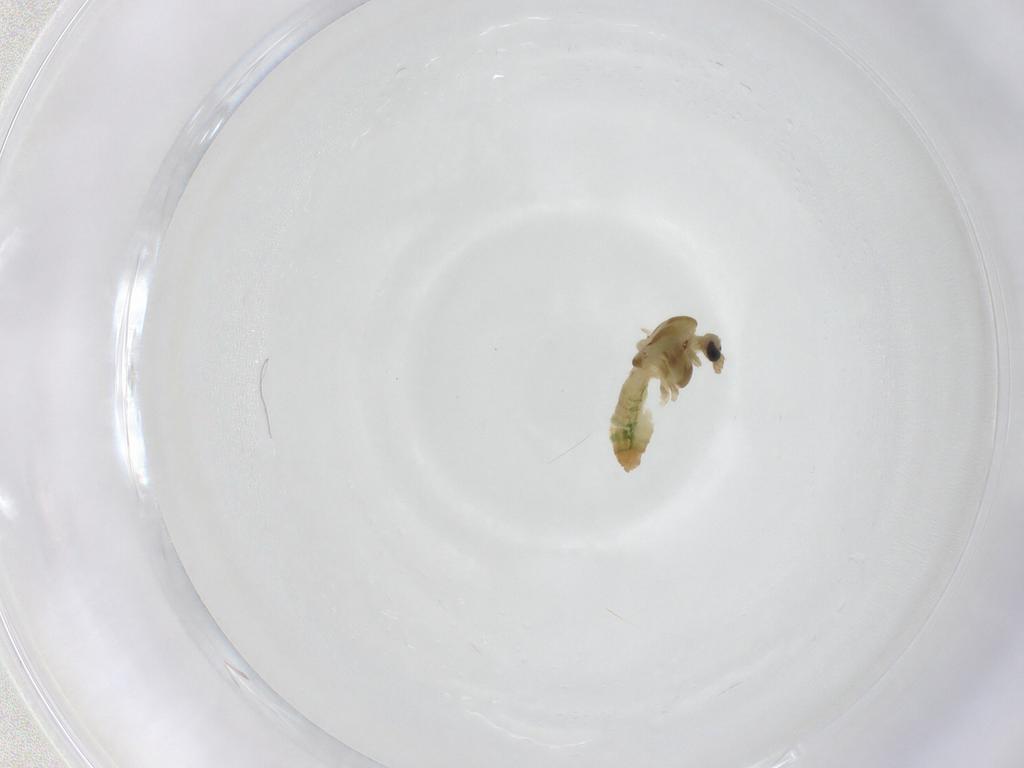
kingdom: Animalia
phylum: Arthropoda
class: Insecta
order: Diptera
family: Chironomidae
